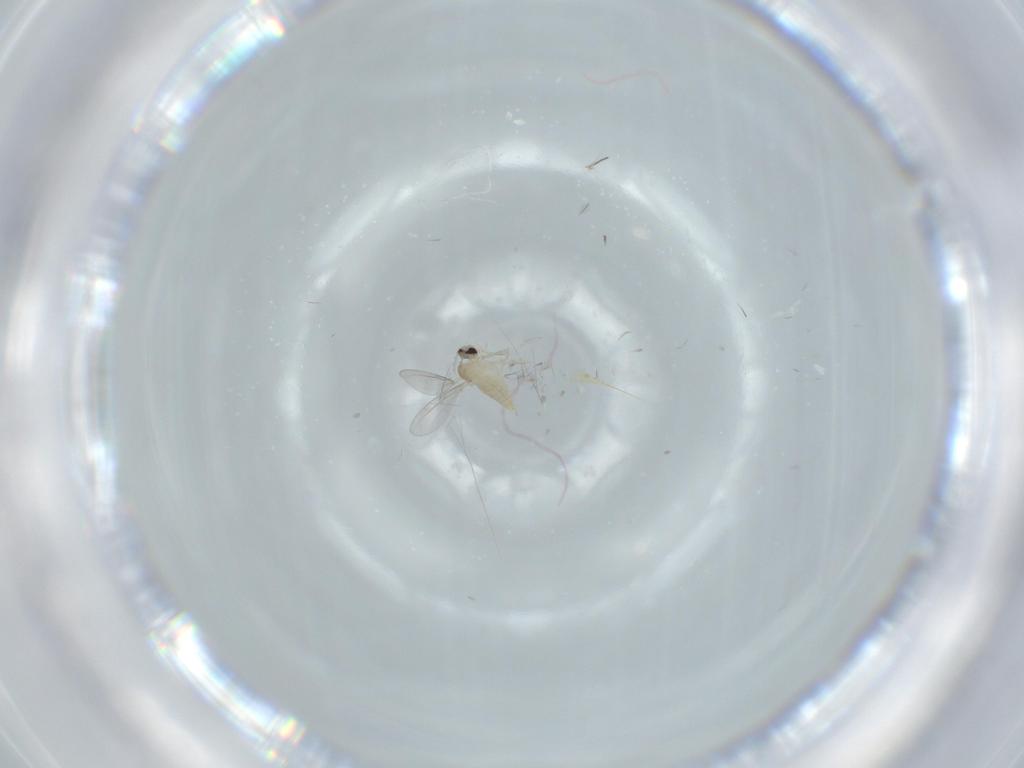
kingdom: Animalia
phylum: Arthropoda
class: Insecta
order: Diptera
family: Cecidomyiidae
